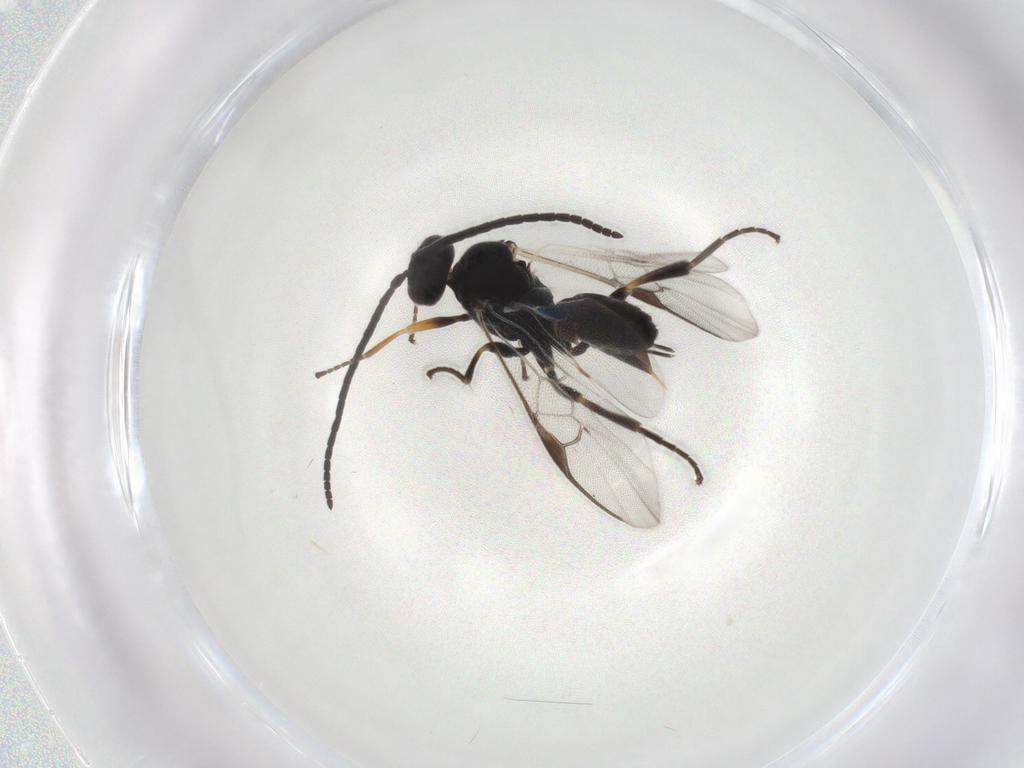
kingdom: Animalia
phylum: Arthropoda
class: Insecta
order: Hymenoptera
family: Braconidae
